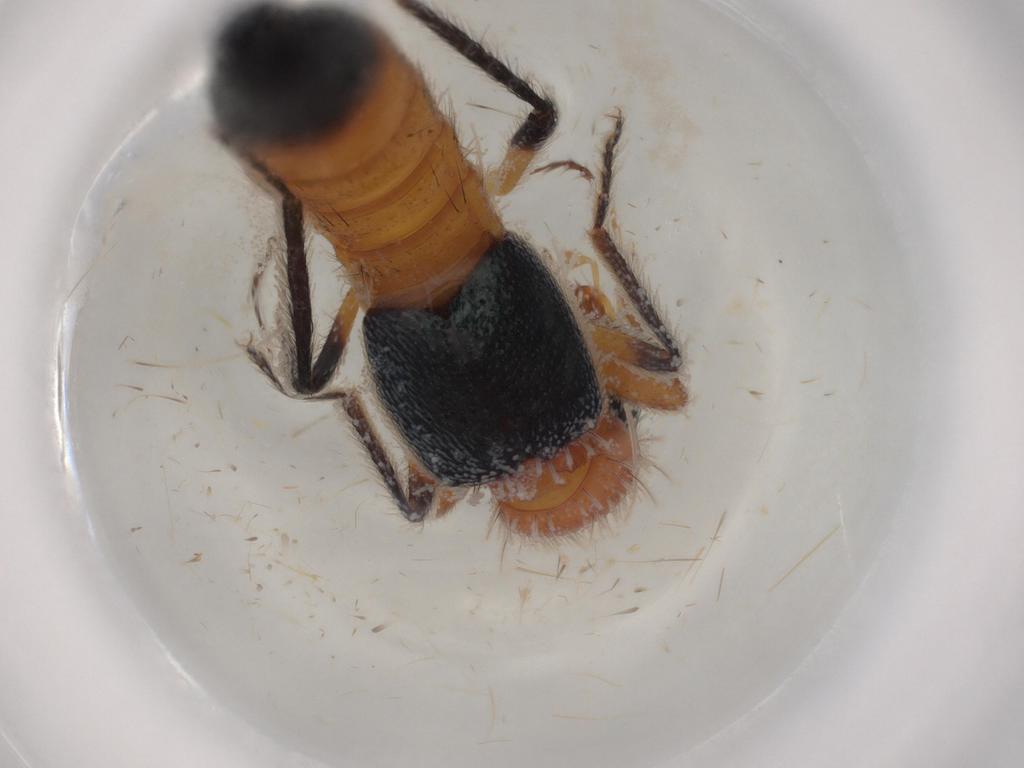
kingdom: Animalia
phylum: Arthropoda
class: Insecta
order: Coleoptera
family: Staphylinidae
